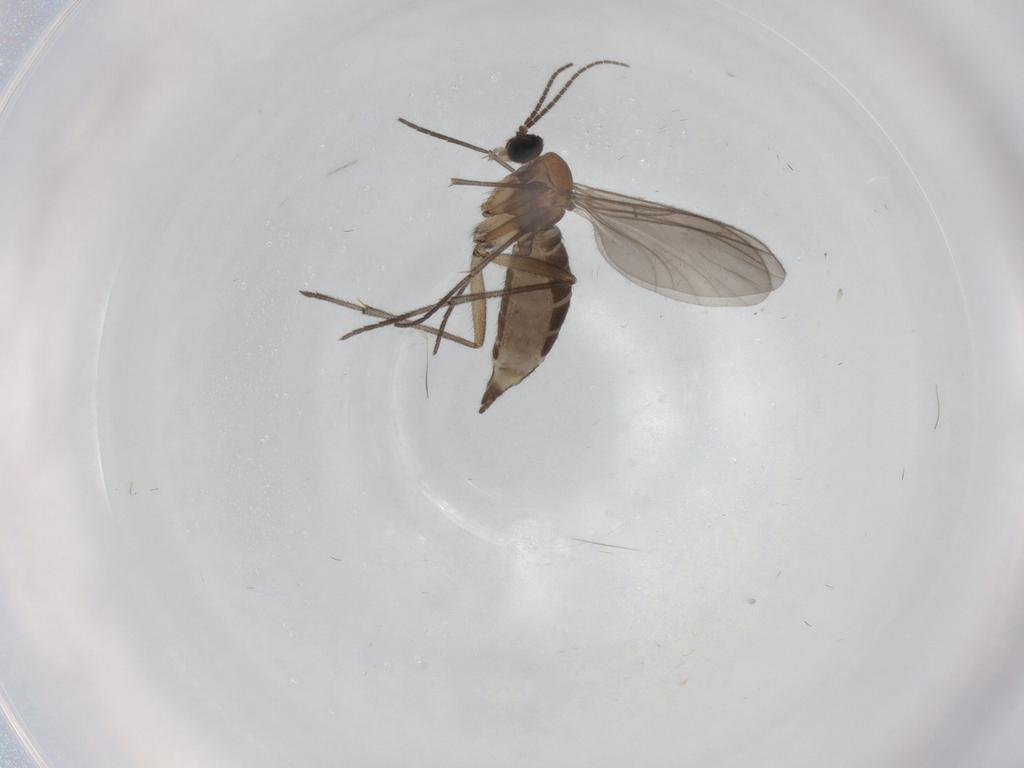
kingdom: Animalia
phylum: Arthropoda
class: Insecta
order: Diptera
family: Sciaridae
